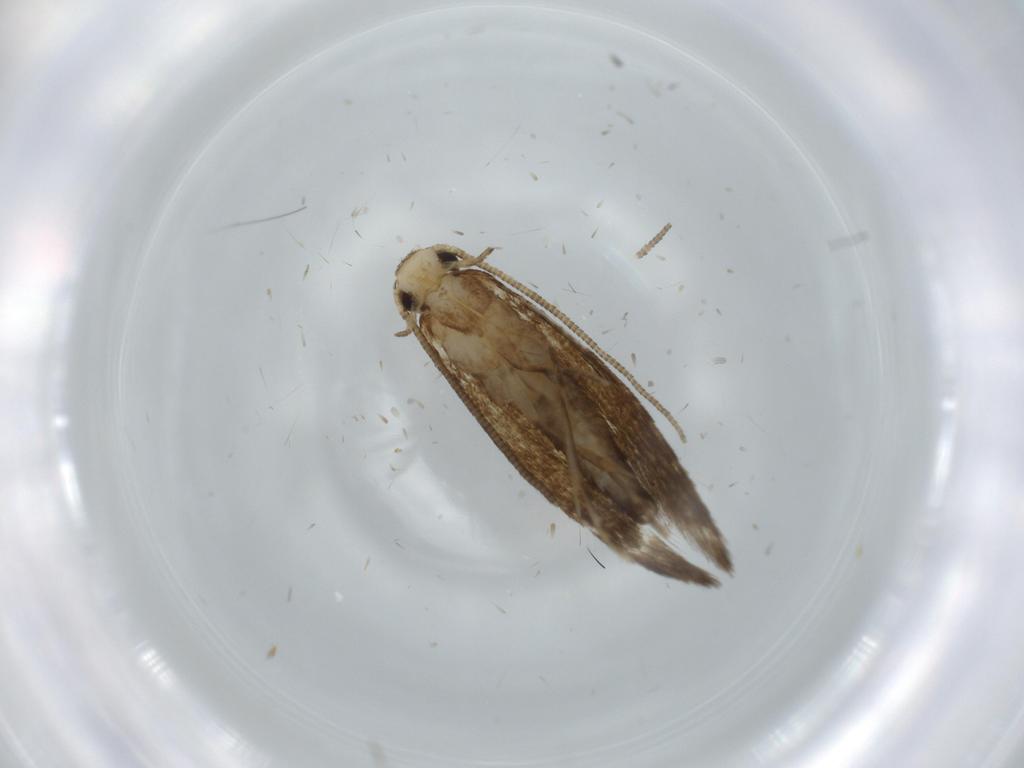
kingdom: Animalia
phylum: Arthropoda
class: Insecta
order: Lepidoptera
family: Tineidae
